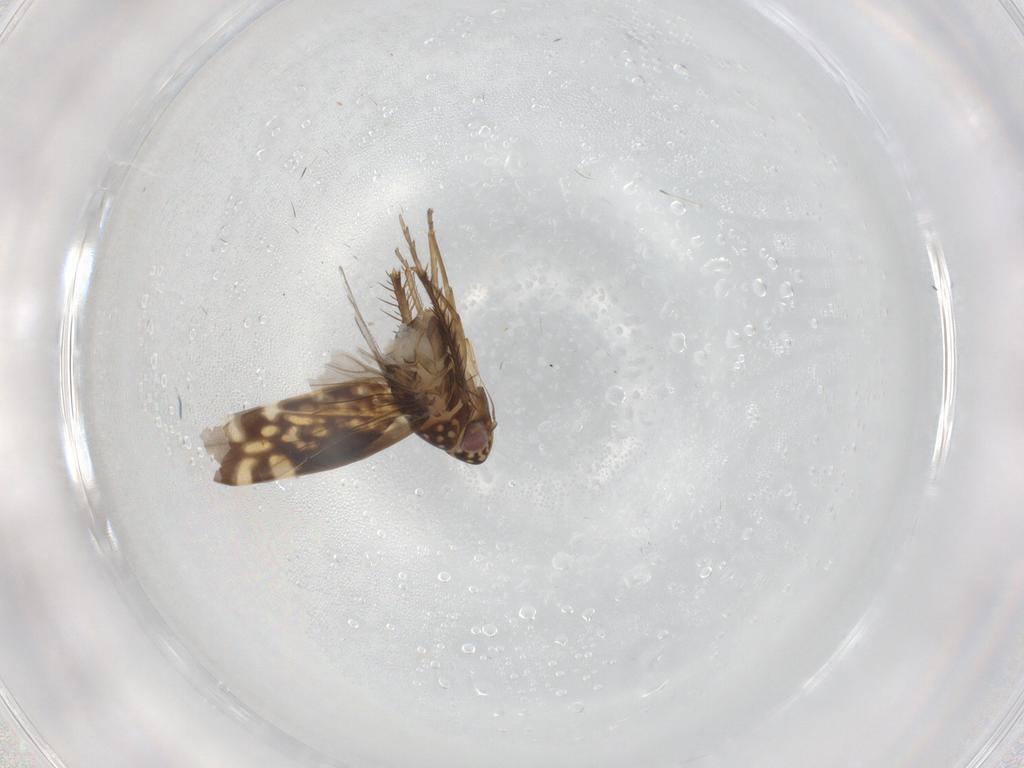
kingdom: Animalia
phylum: Arthropoda
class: Insecta
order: Hemiptera
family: Cicadellidae
